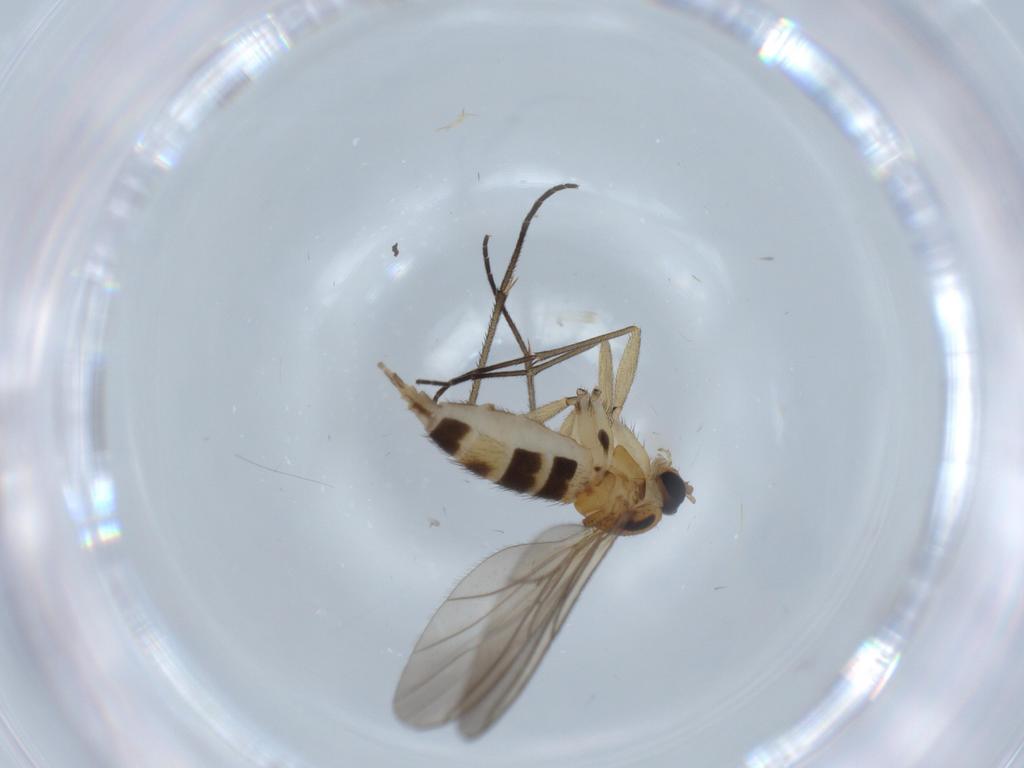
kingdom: Animalia
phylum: Arthropoda
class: Insecta
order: Diptera
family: Sciaridae
